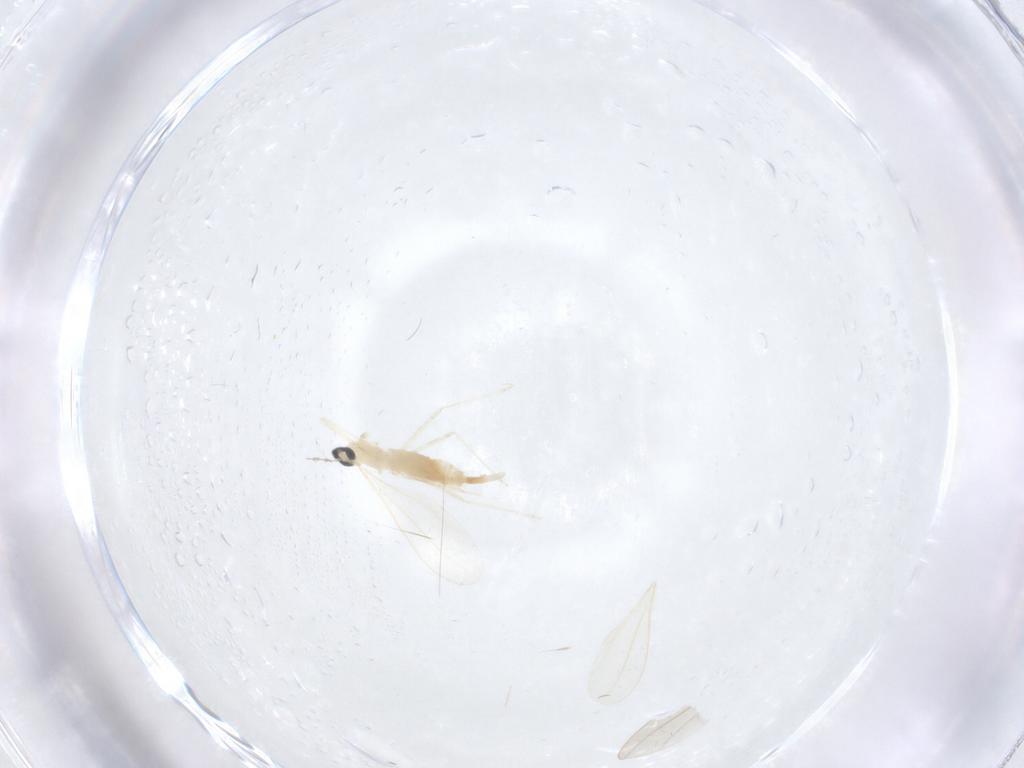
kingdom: Animalia
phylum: Arthropoda
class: Insecta
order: Diptera
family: Cecidomyiidae
